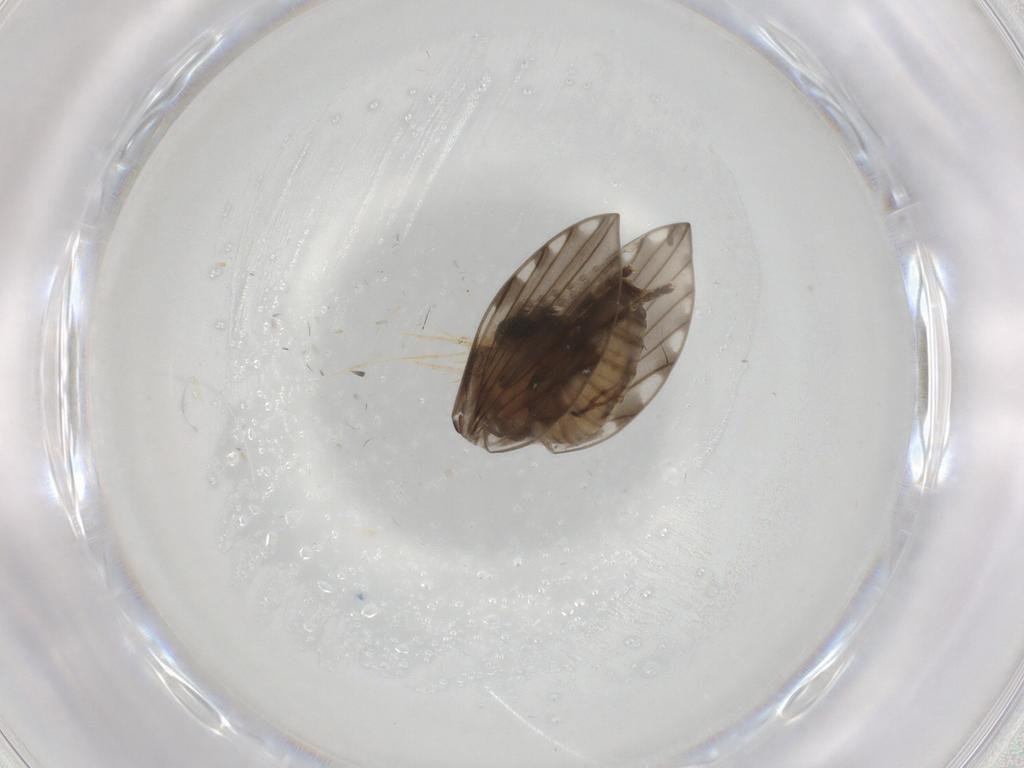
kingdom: Animalia
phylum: Arthropoda
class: Insecta
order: Diptera
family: Psychodidae
